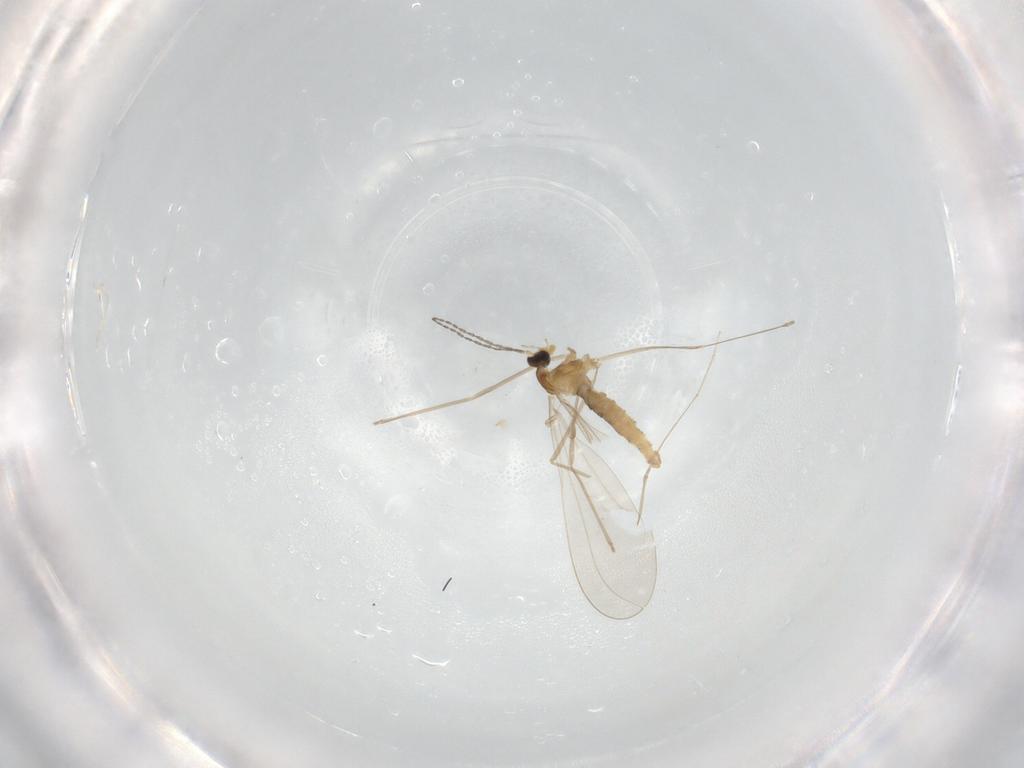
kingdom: Animalia
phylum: Arthropoda
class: Insecta
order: Diptera
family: Cecidomyiidae
